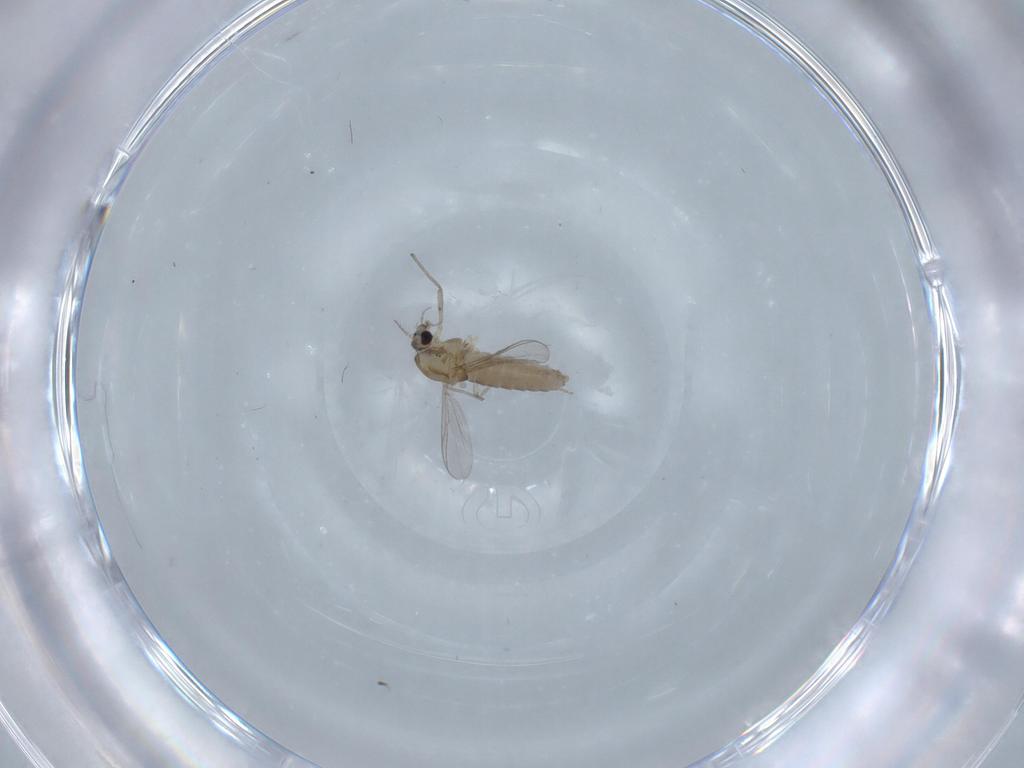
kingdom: Animalia
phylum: Arthropoda
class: Insecta
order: Diptera
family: Chironomidae
